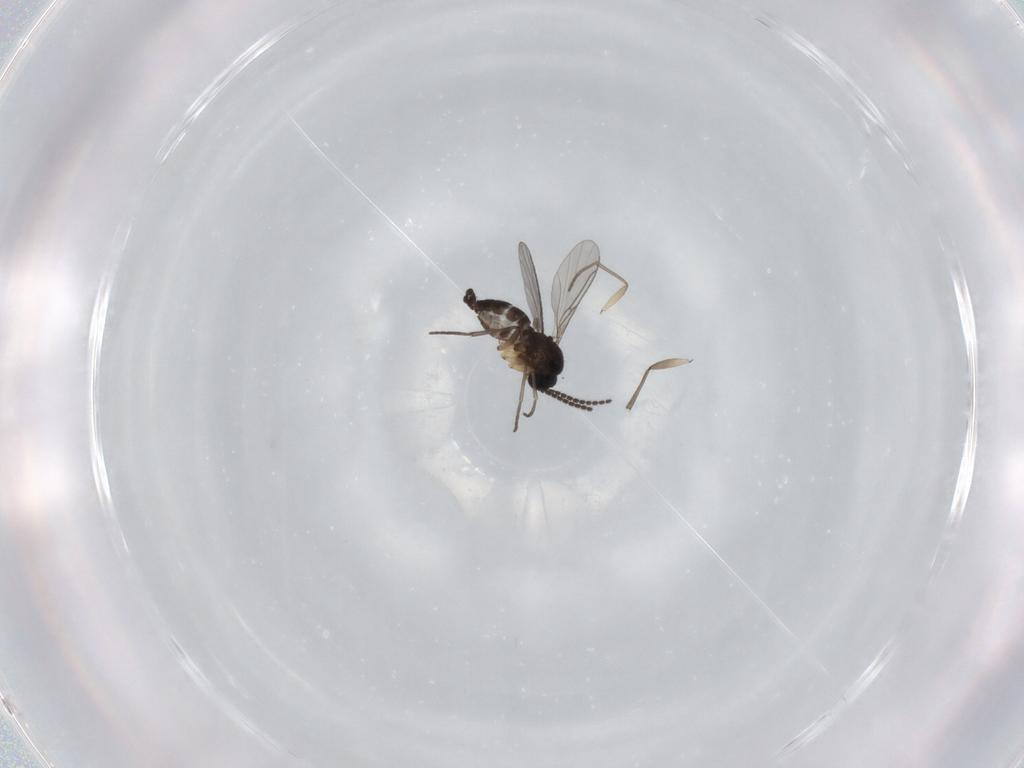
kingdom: Animalia
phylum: Arthropoda
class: Insecta
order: Diptera
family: Sciaridae
